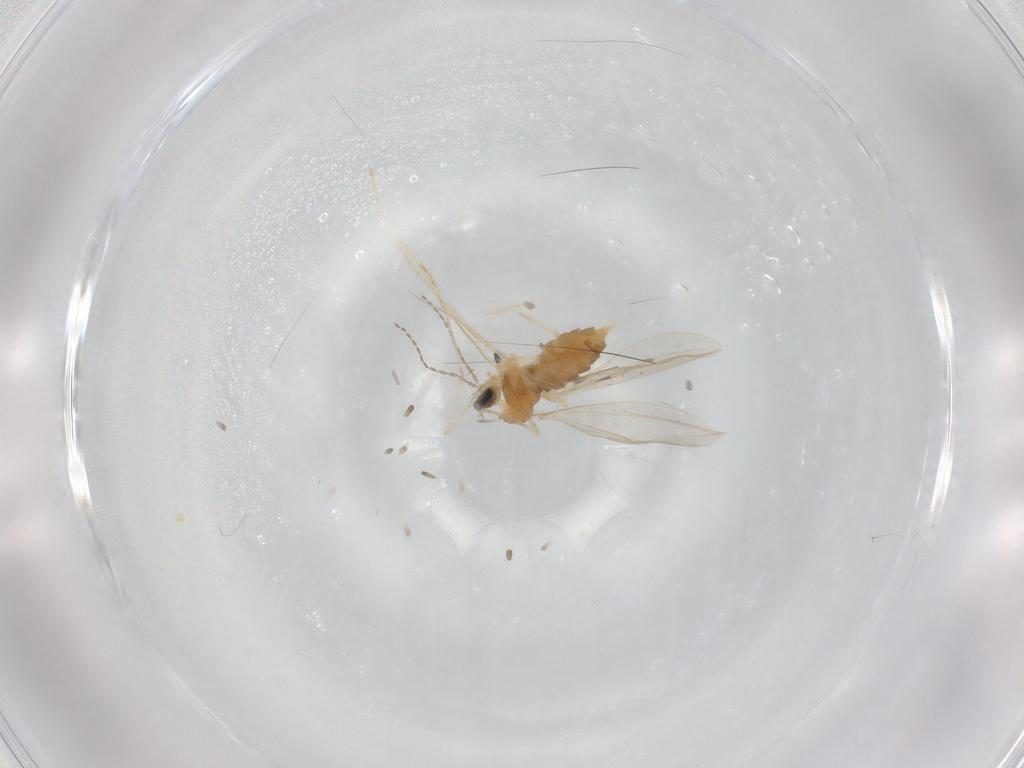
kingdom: Animalia
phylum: Arthropoda
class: Insecta
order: Diptera
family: Cecidomyiidae
